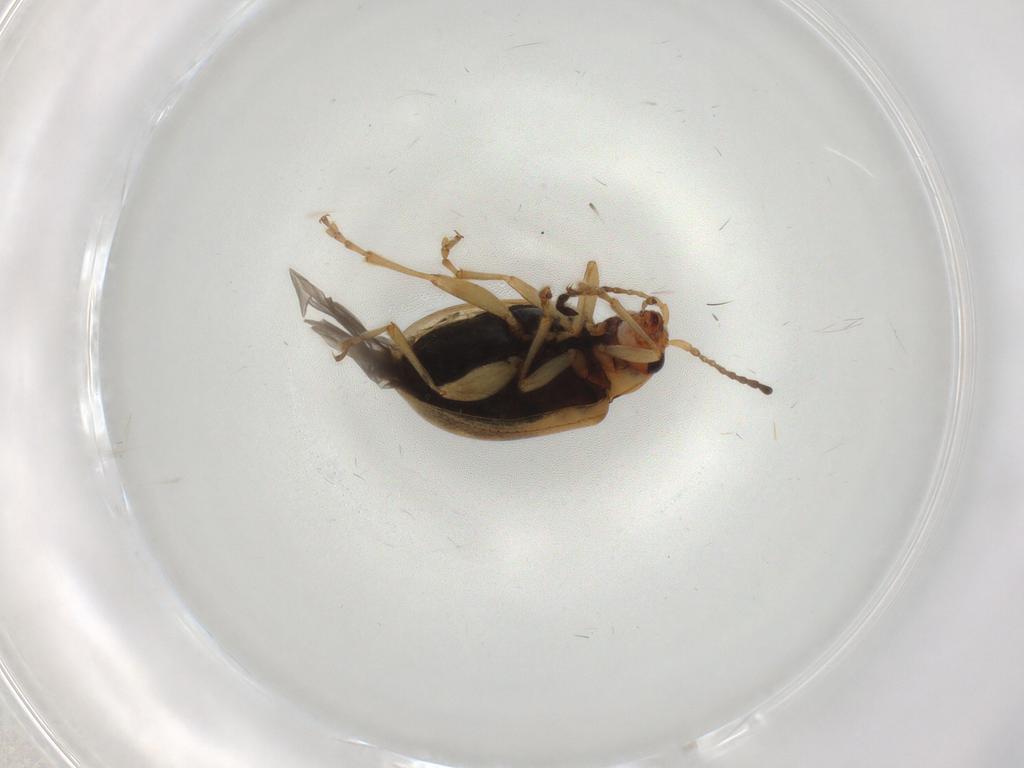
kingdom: Animalia
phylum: Arthropoda
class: Insecta
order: Coleoptera
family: Chrysomelidae
